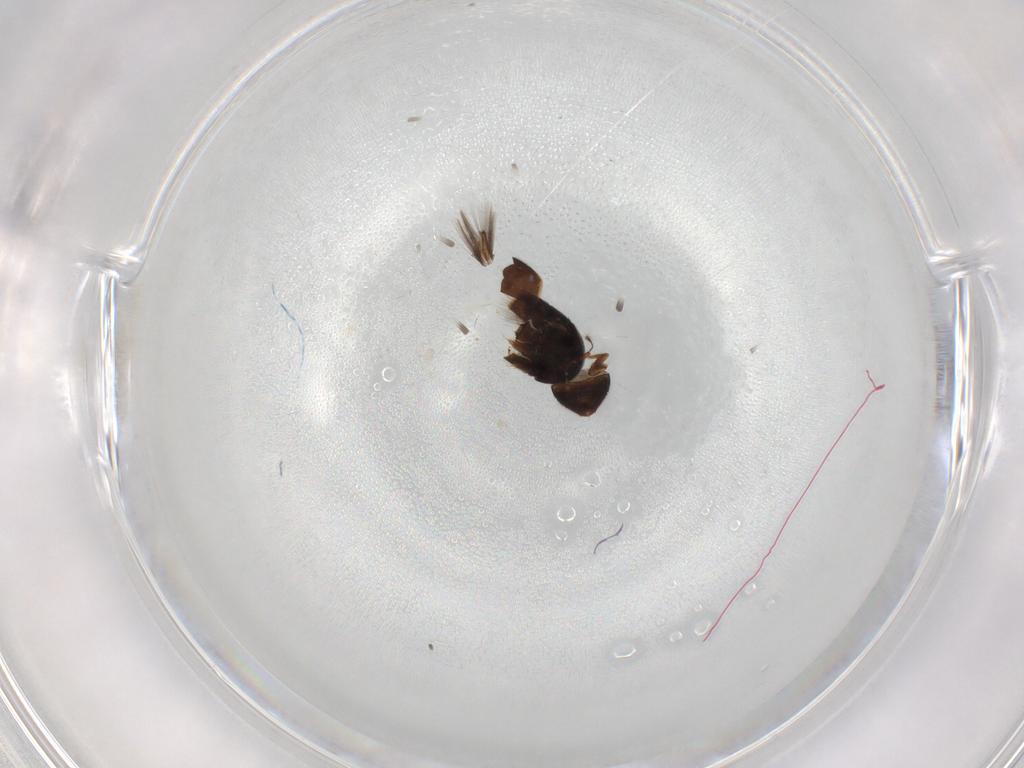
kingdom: Animalia
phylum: Arthropoda
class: Insecta
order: Coleoptera
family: Ptiliidae
